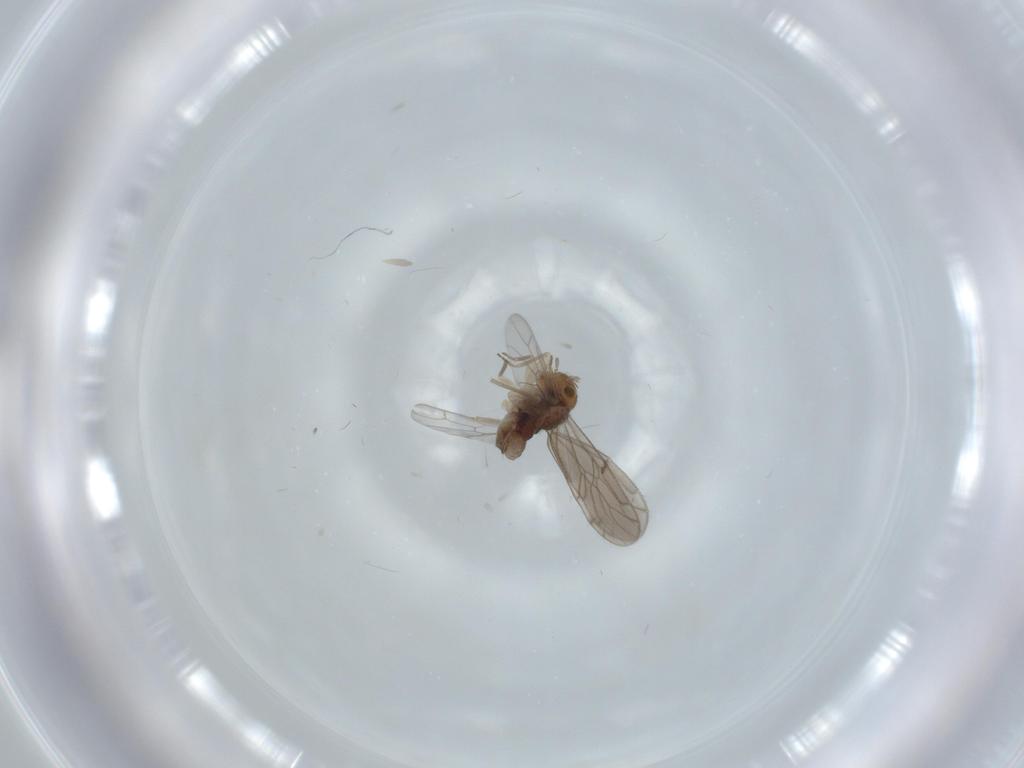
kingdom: Animalia
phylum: Arthropoda
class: Insecta
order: Psocodea
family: Ectopsocidae
